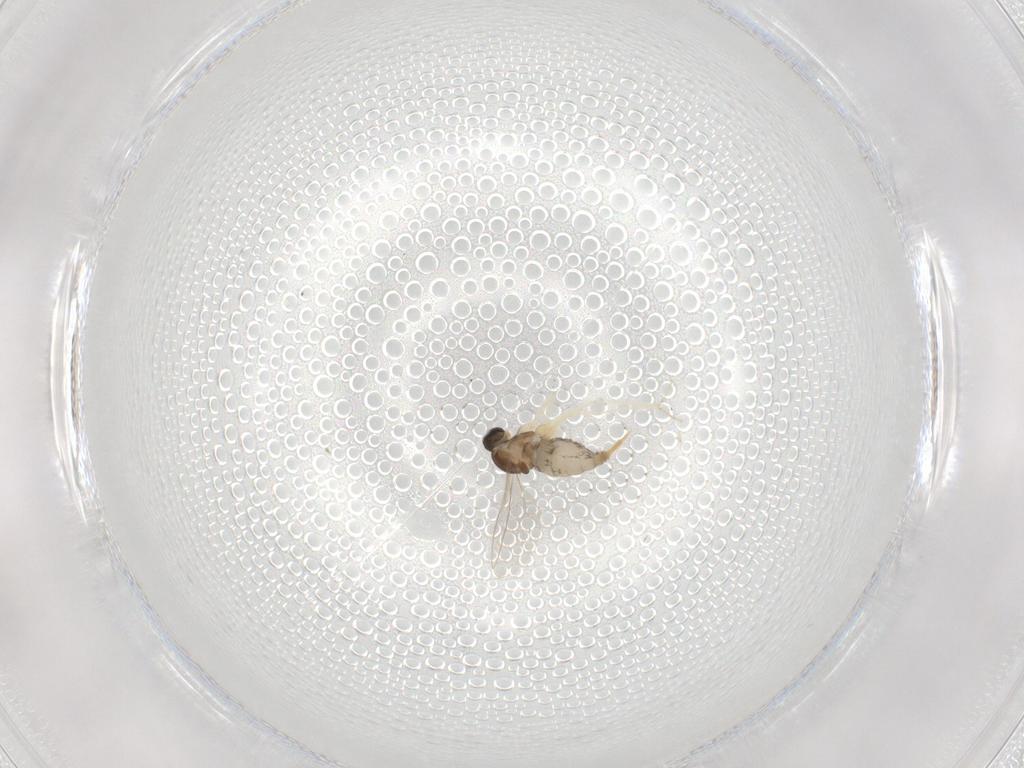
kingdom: Animalia
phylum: Arthropoda
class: Insecta
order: Diptera
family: Cecidomyiidae
